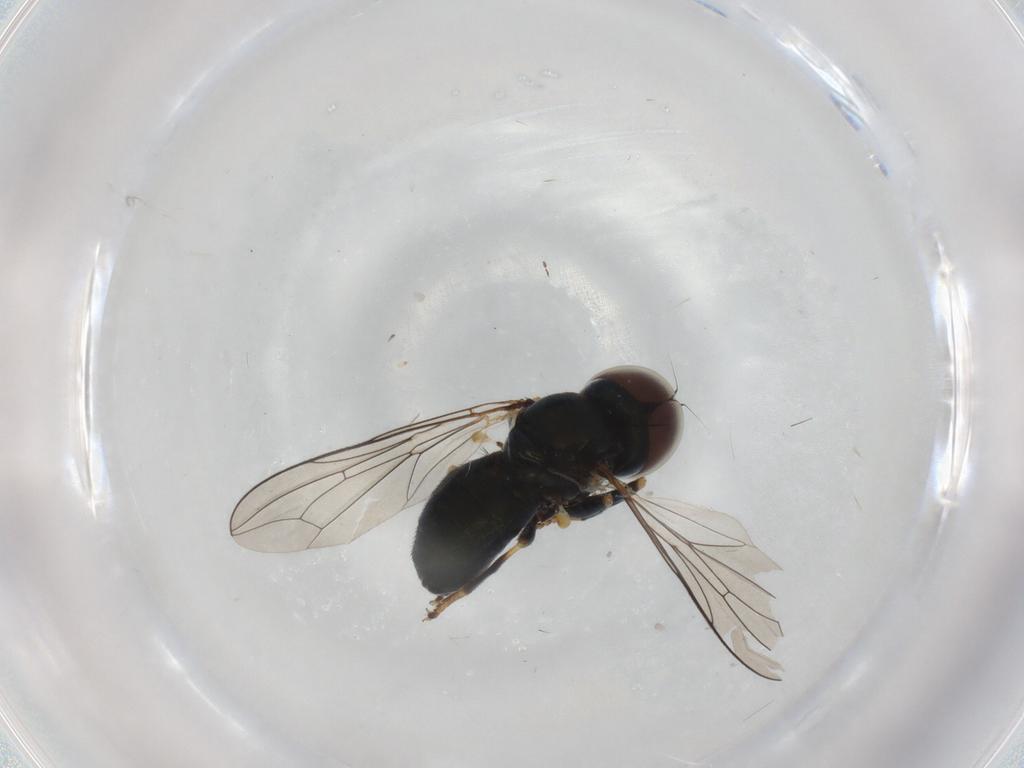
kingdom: Animalia
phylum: Arthropoda
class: Insecta
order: Diptera
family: Pipunculidae
